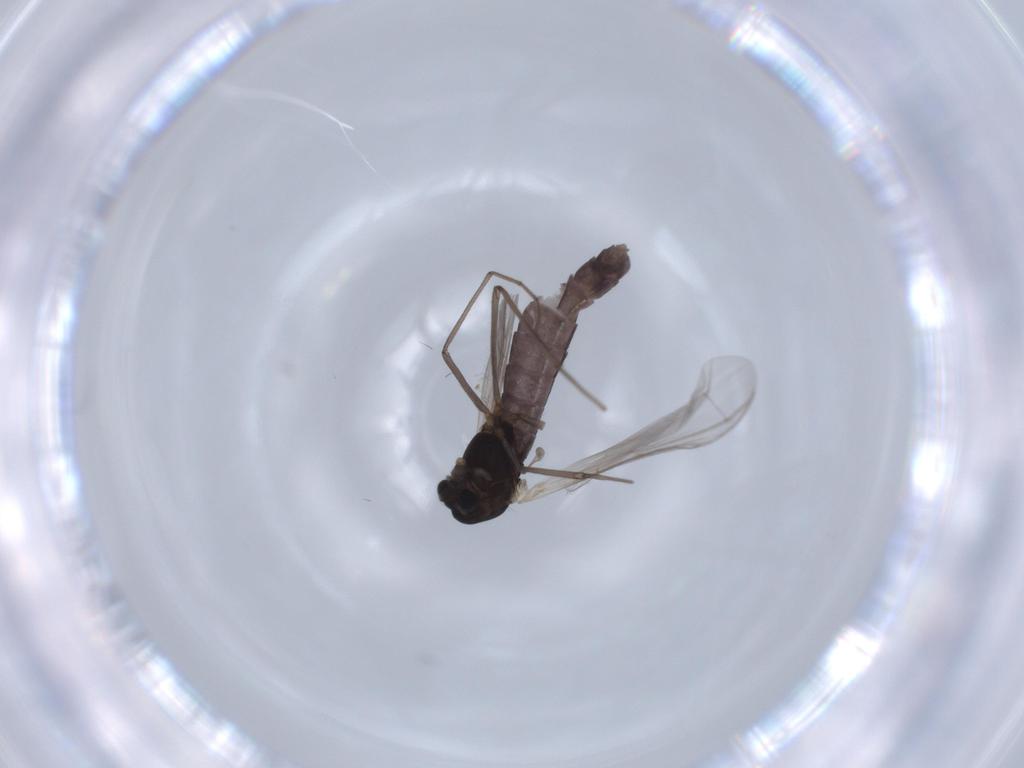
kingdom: Animalia
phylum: Arthropoda
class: Insecta
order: Diptera
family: Chironomidae
